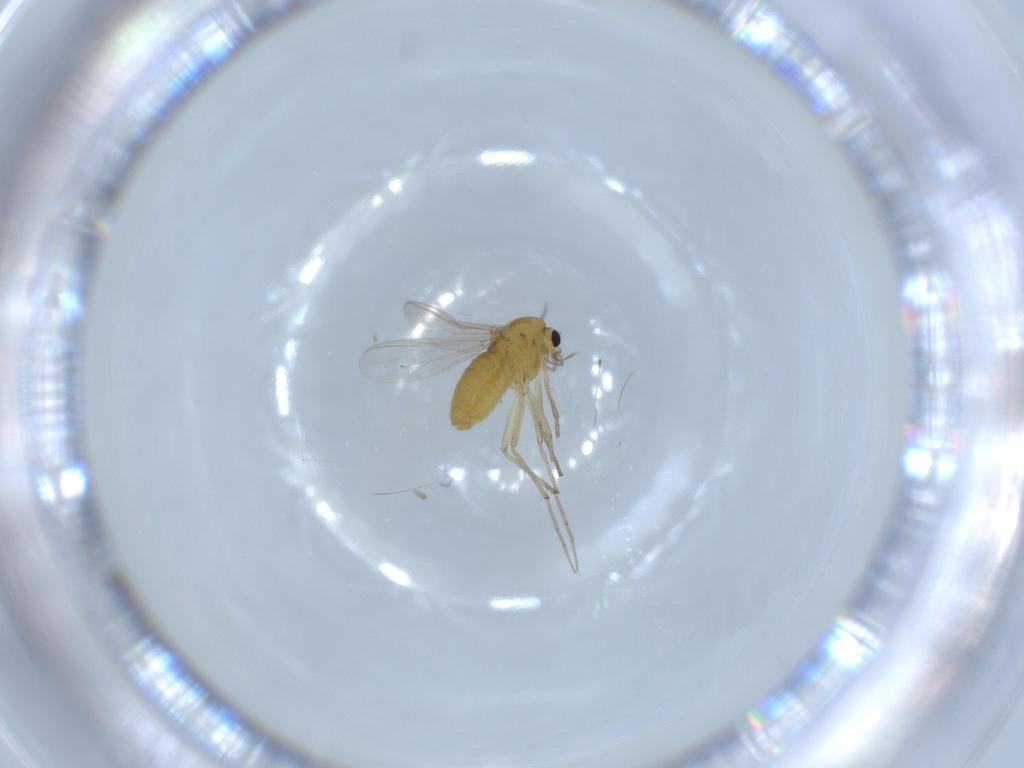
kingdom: Animalia
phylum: Arthropoda
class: Insecta
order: Diptera
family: Chironomidae
